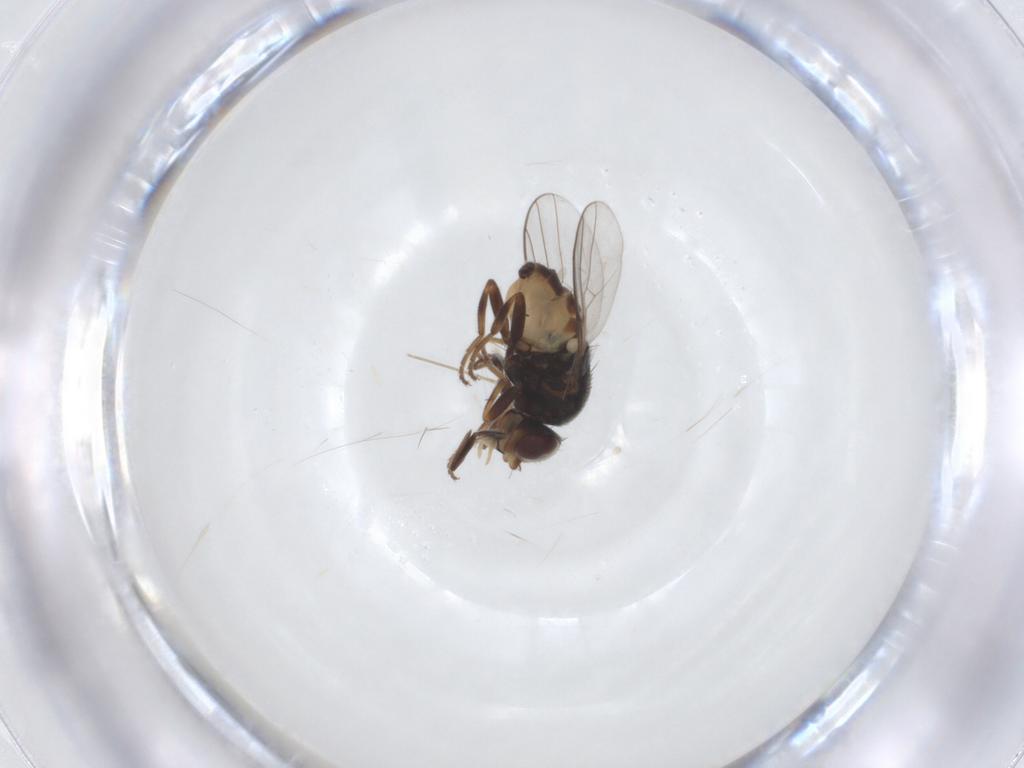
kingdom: Animalia
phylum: Arthropoda
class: Insecta
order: Diptera
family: Chloropidae
